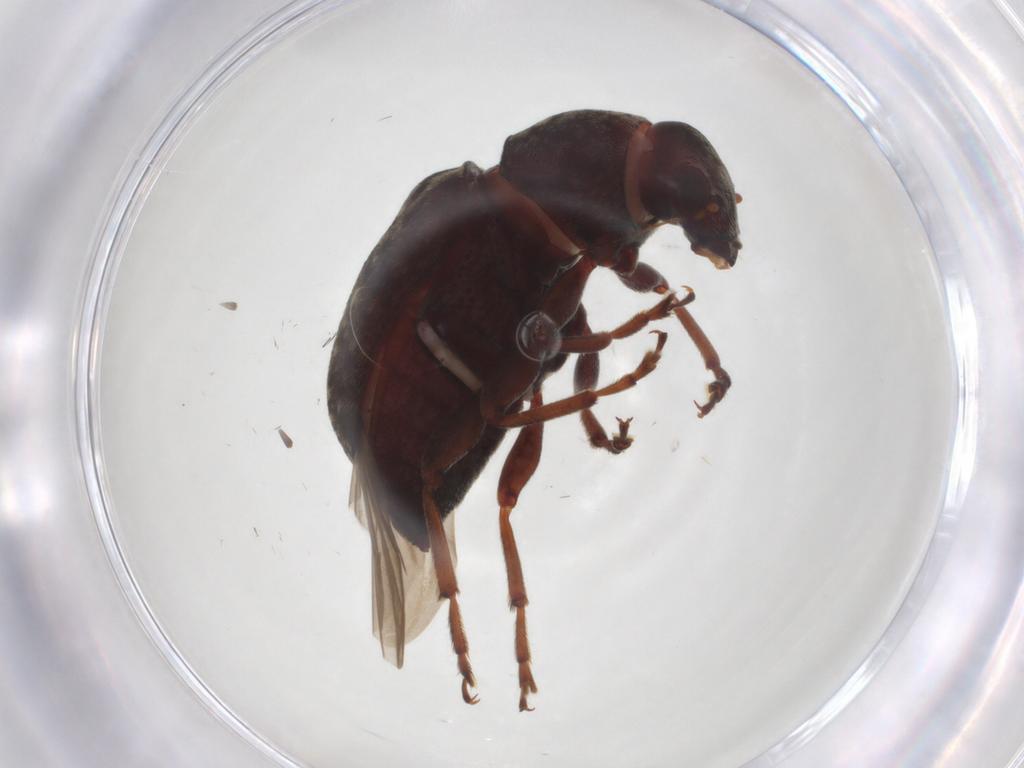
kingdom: Animalia
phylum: Arthropoda
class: Insecta
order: Coleoptera
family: Anthribidae
